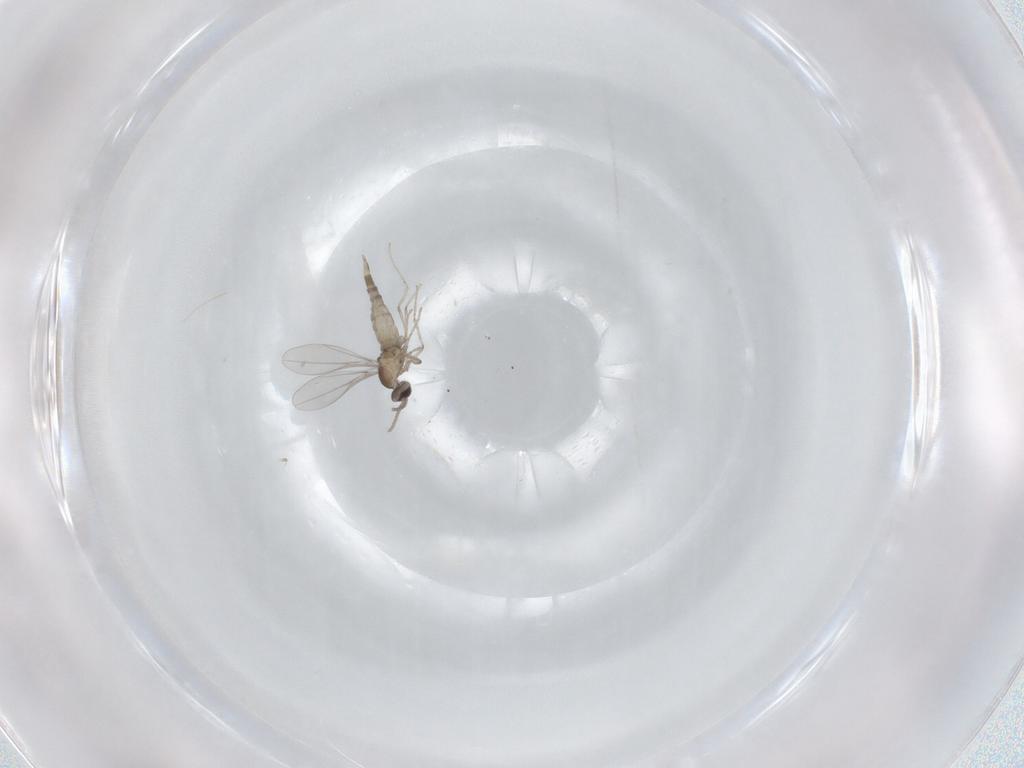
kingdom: Animalia
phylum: Arthropoda
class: Insecta
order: Diptera
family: Cecidomyiidae
